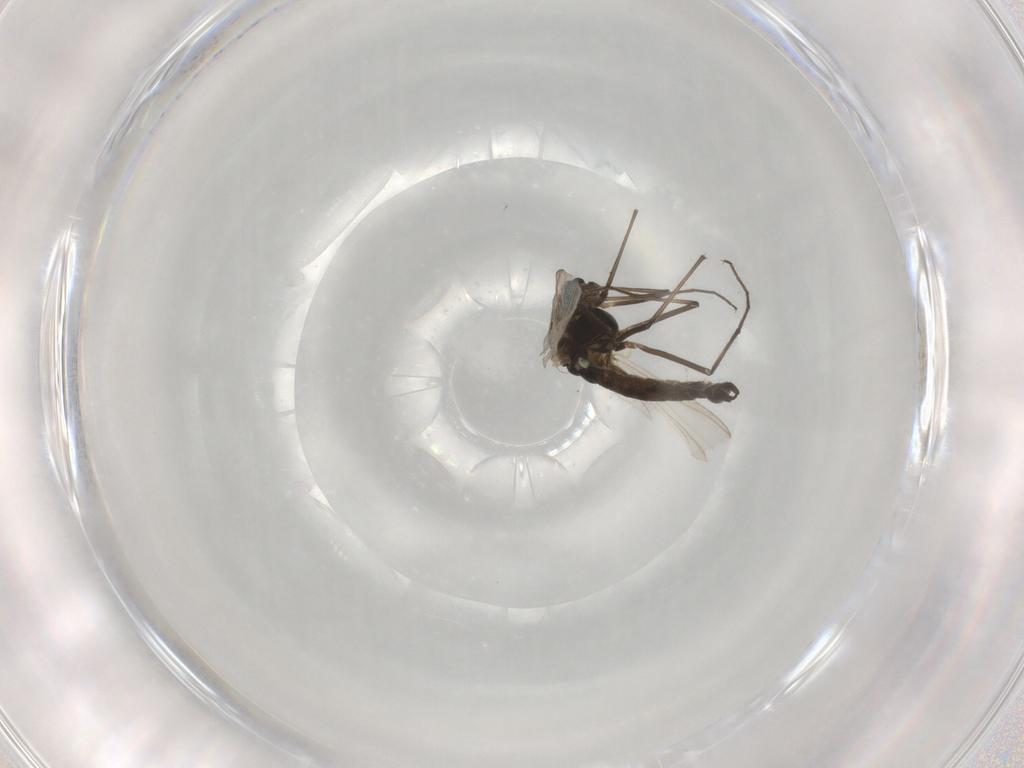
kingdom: Animalia
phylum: Arthropoda
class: Insecta
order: Diptera
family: Chironomidae
